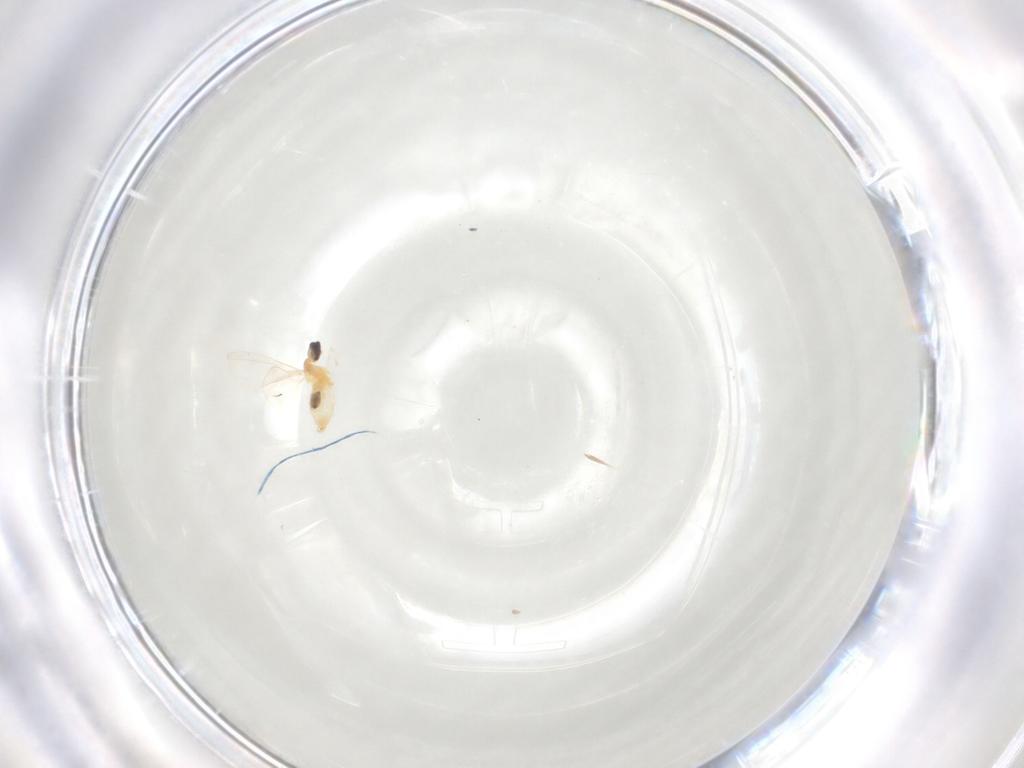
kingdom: Animalia
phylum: Arthropoda
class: Insecta
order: Diptera
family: Cecidomyiidae
